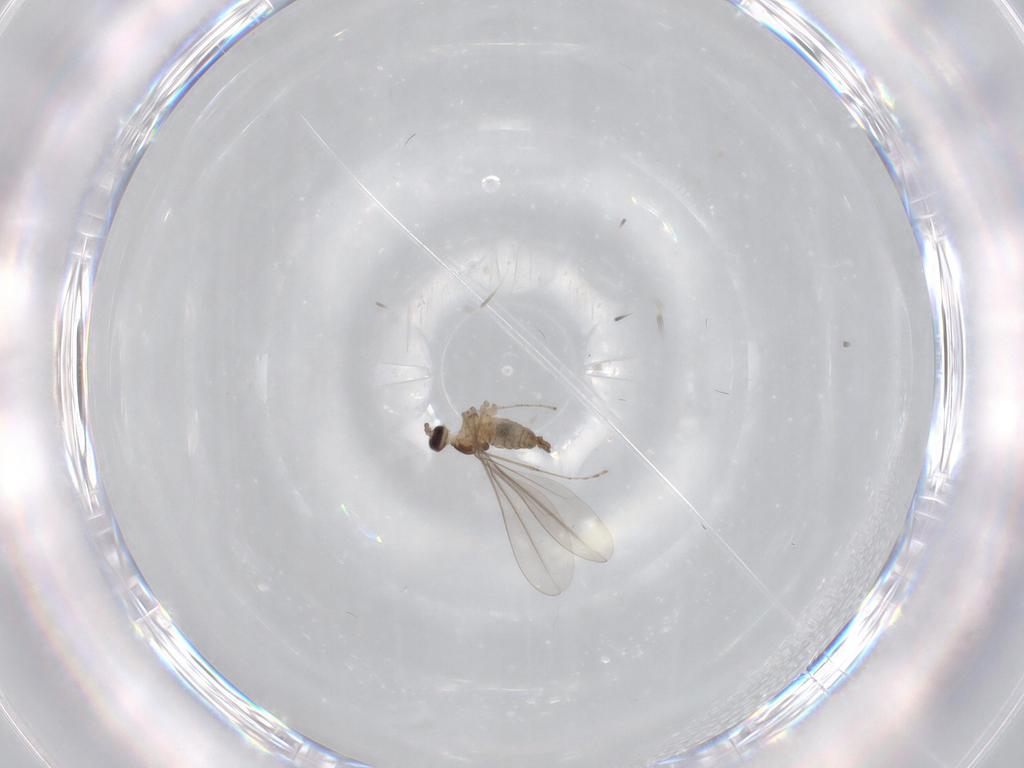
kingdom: Animalia
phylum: Arthropoda
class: Insecta
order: Diptera
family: Cecidomyiidae
